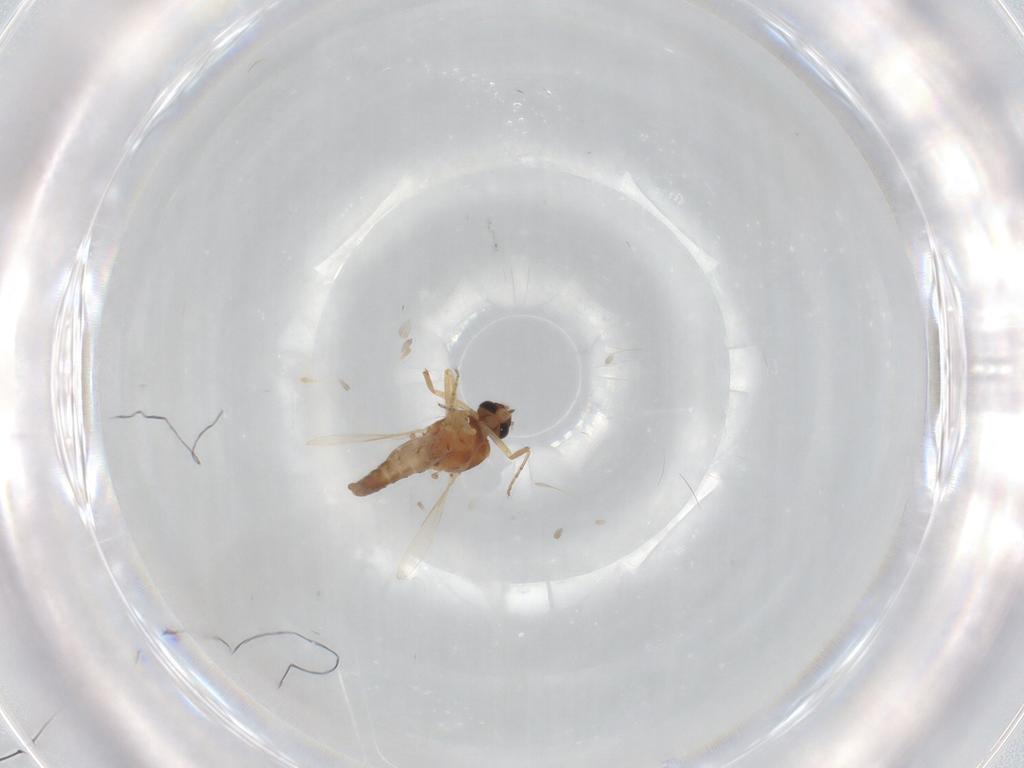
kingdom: Animalia
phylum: Arthropoda
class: Insecta
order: Diptera
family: Ceratopogonidae
